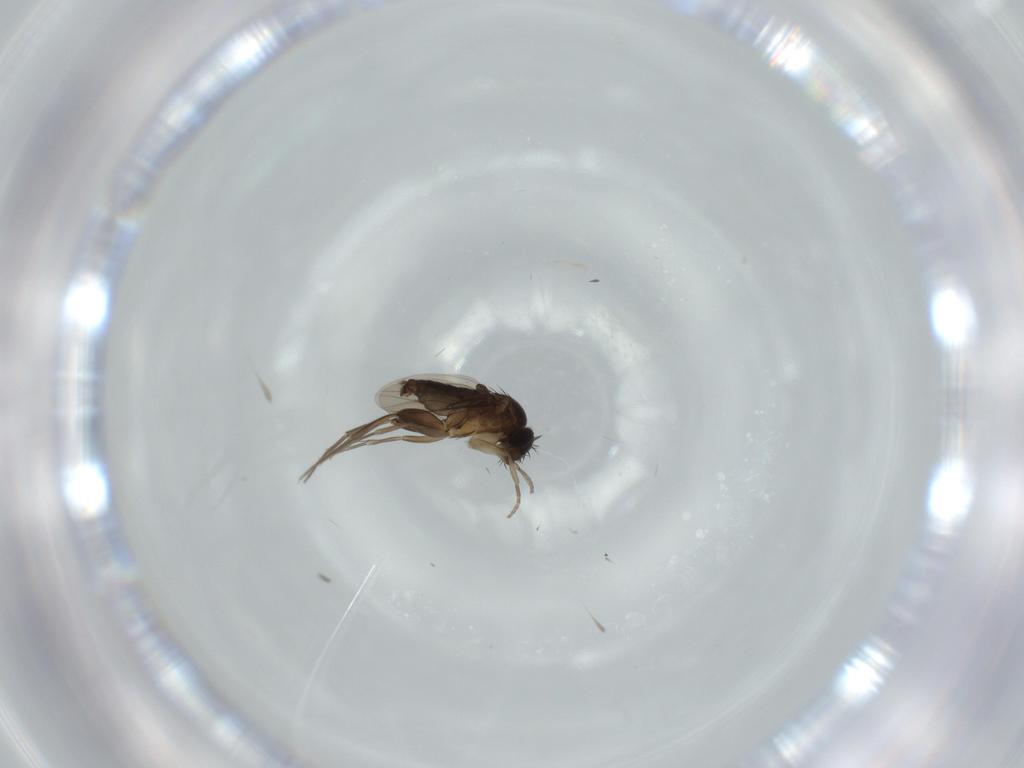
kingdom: Animalia
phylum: Arthropoda
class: Insecta
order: Diptera
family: Phoridae
